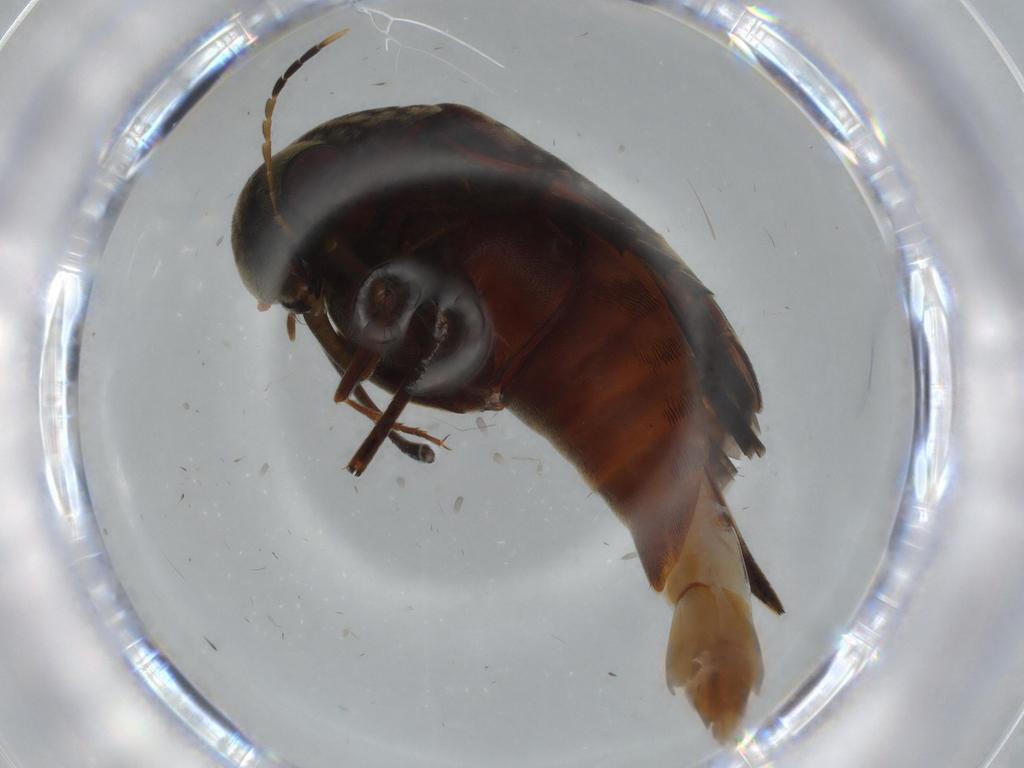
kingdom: Animalia
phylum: Arthropoda
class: Insecta
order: Coleoptera
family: Mordellidae
